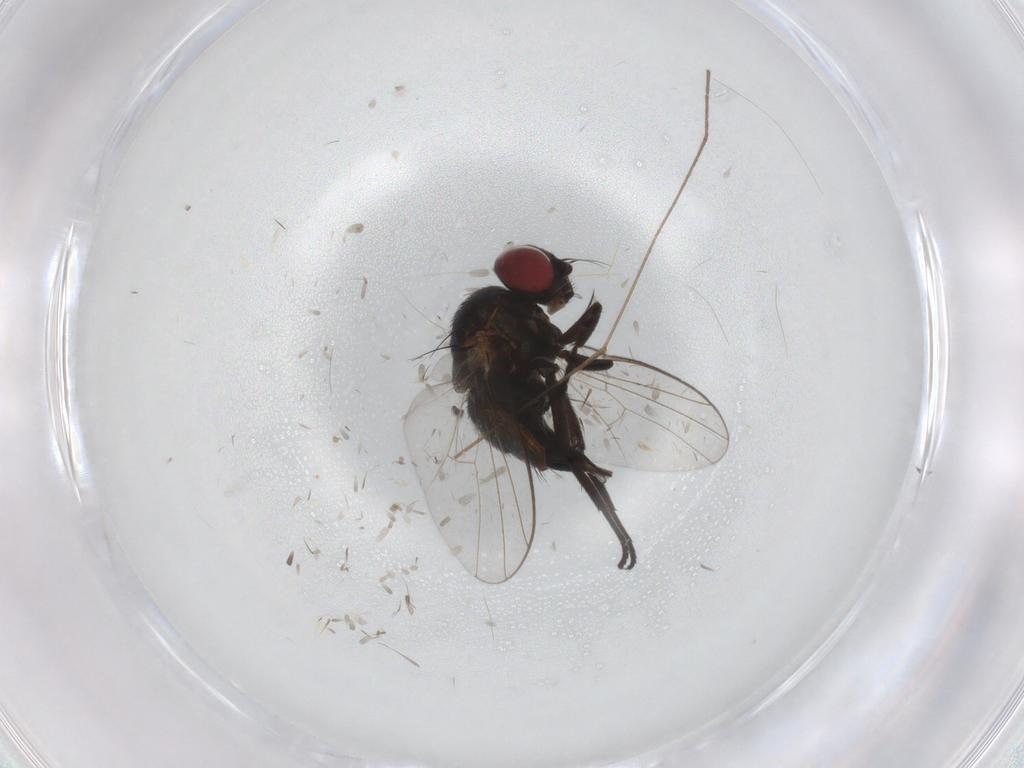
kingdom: Animalia
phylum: Arthropoda
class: Insecta
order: Diptera
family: Agromyzidae
